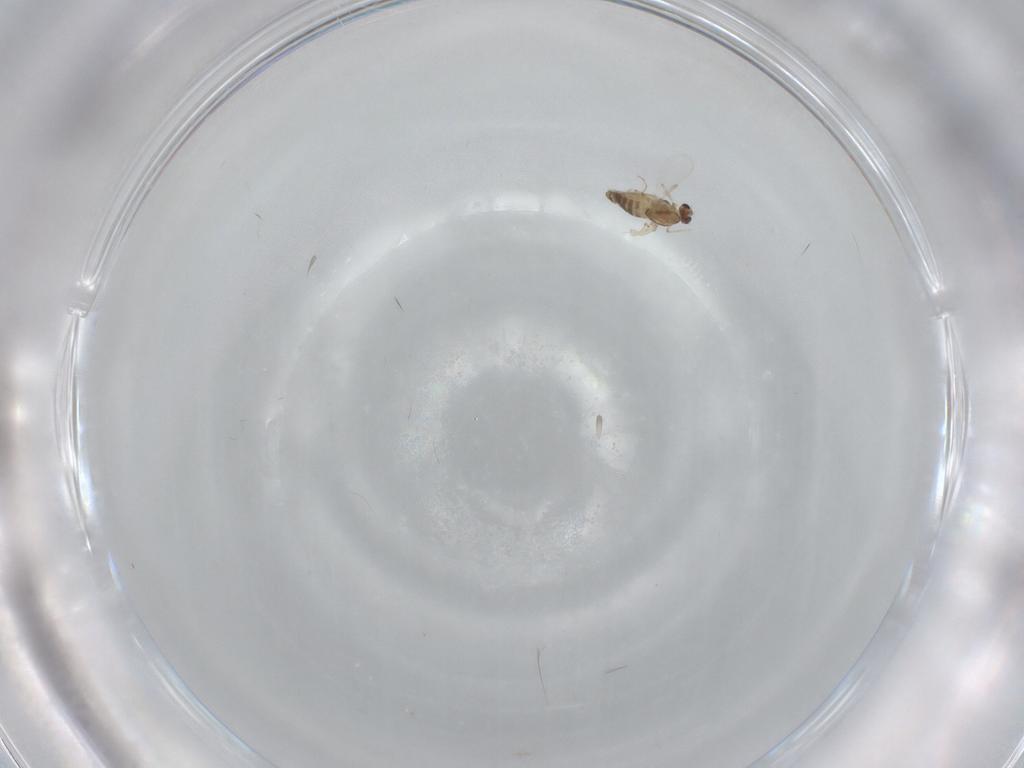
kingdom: Animalia
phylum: Arthropoda
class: Insecta
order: Diptera
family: Chironomidae
